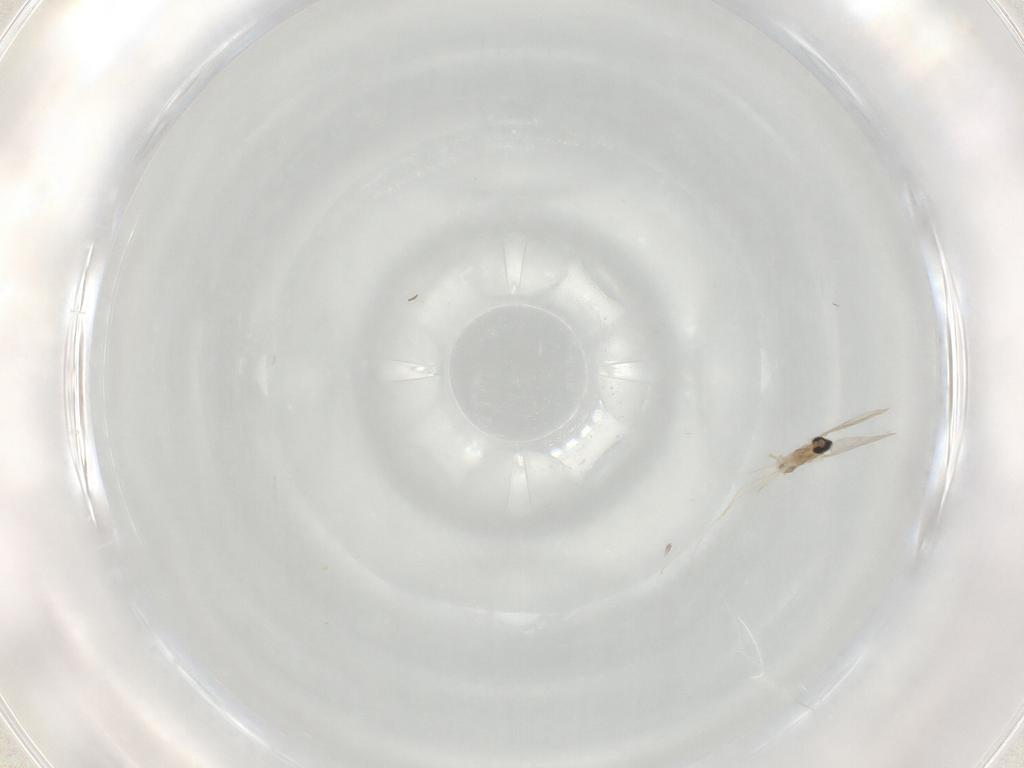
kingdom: Animalia
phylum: Arthropoda
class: Insecta
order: Diptera
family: Cecidomyiidae
